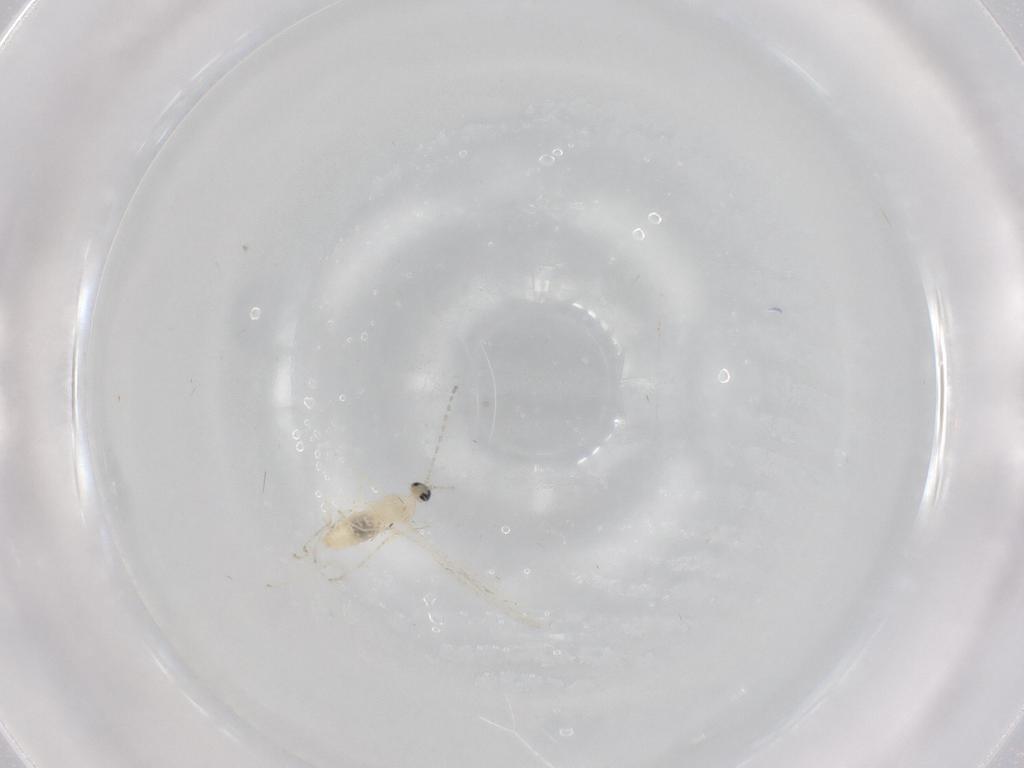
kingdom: Animalia
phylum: Arthropoda
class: Insecta
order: Diptera
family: Cecidomyiidae
